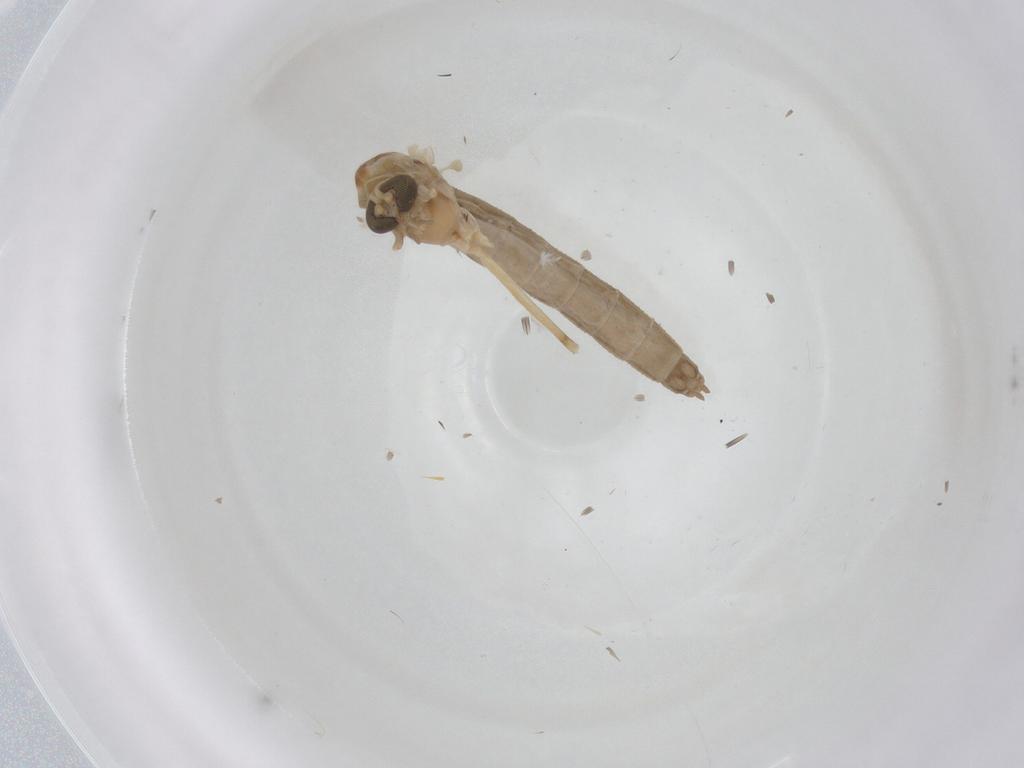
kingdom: Animalia
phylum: Arthropoda
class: Insecta
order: Diptera
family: Chironomidae
